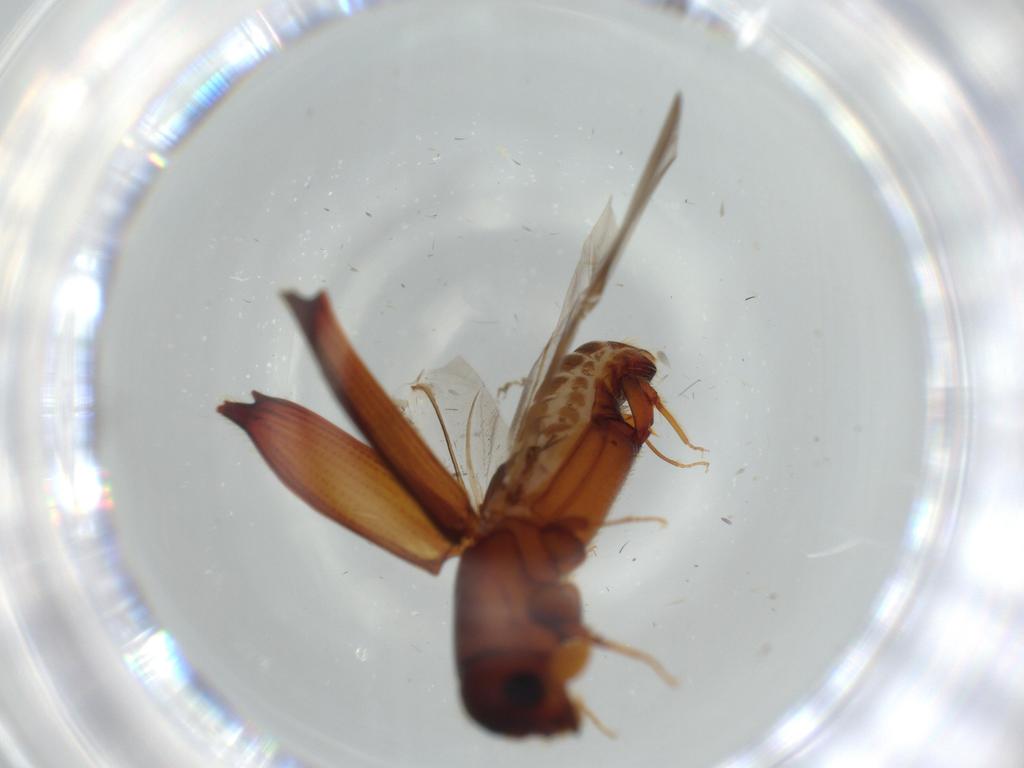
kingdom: Animalia
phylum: Arthropoda
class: Insecta
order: Coleoptera
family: Curculionidae
